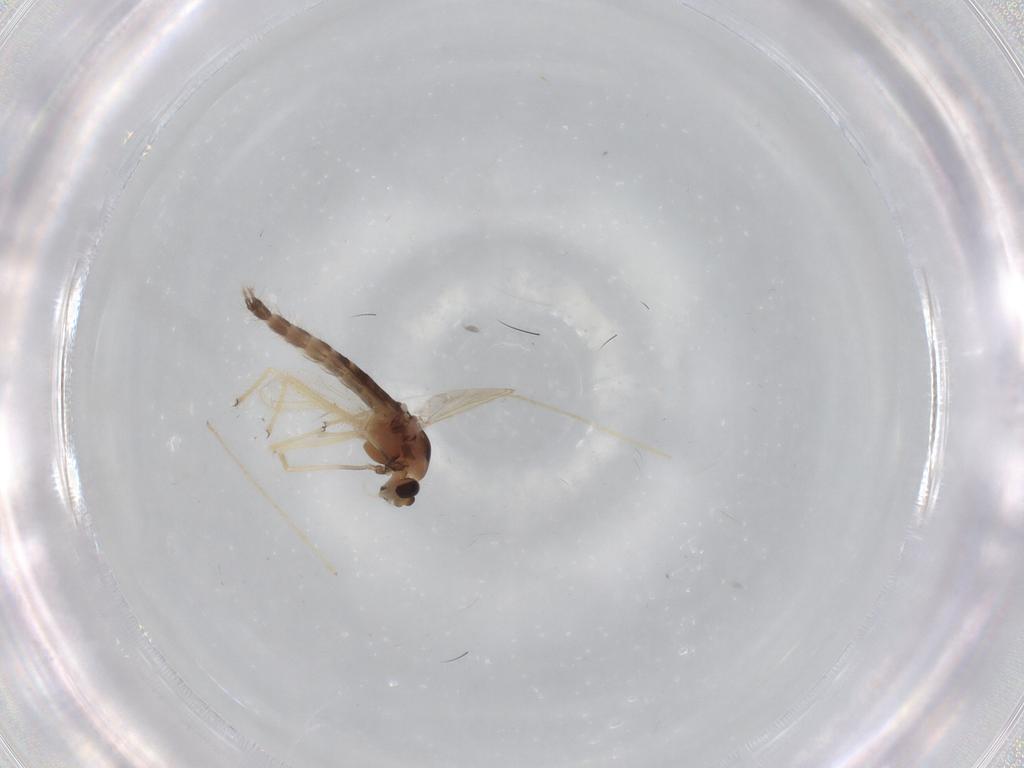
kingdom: Animalia
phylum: Arthropoda
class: Insecta
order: Diptera
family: Chironomidae
